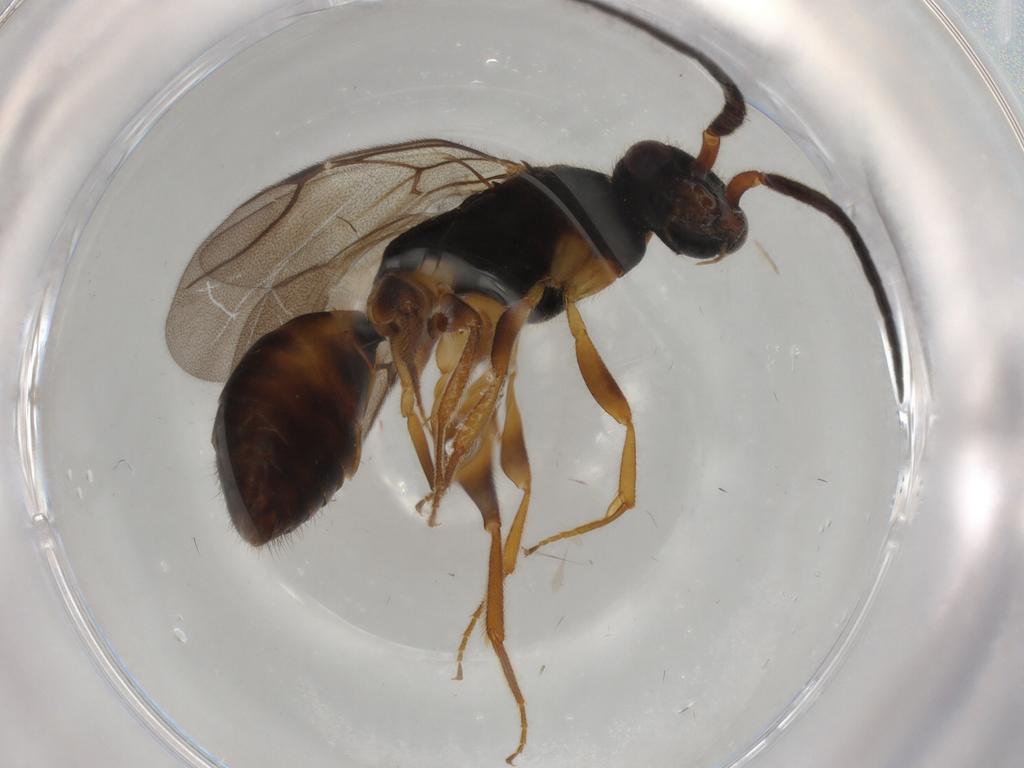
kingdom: Animalia
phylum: Arthropoda
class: Insecta
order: Hymenoptera
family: Bethylidae
